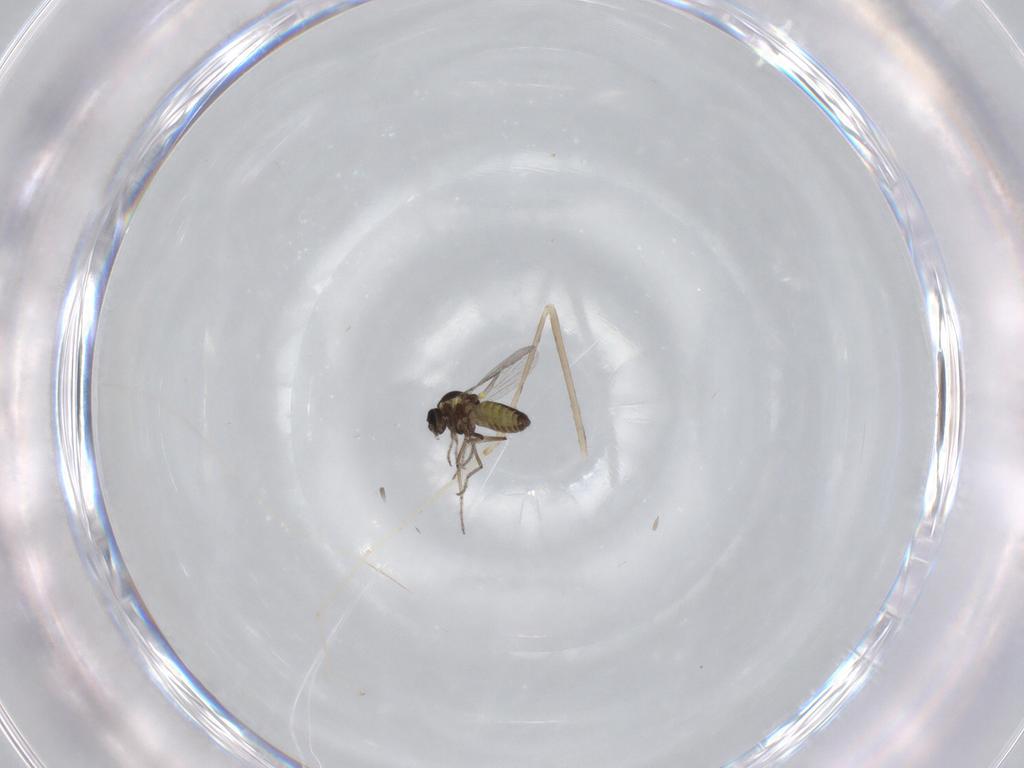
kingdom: Animalia
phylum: Arthropoda
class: Insecta
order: Diptera
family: Ceratopogonidae
